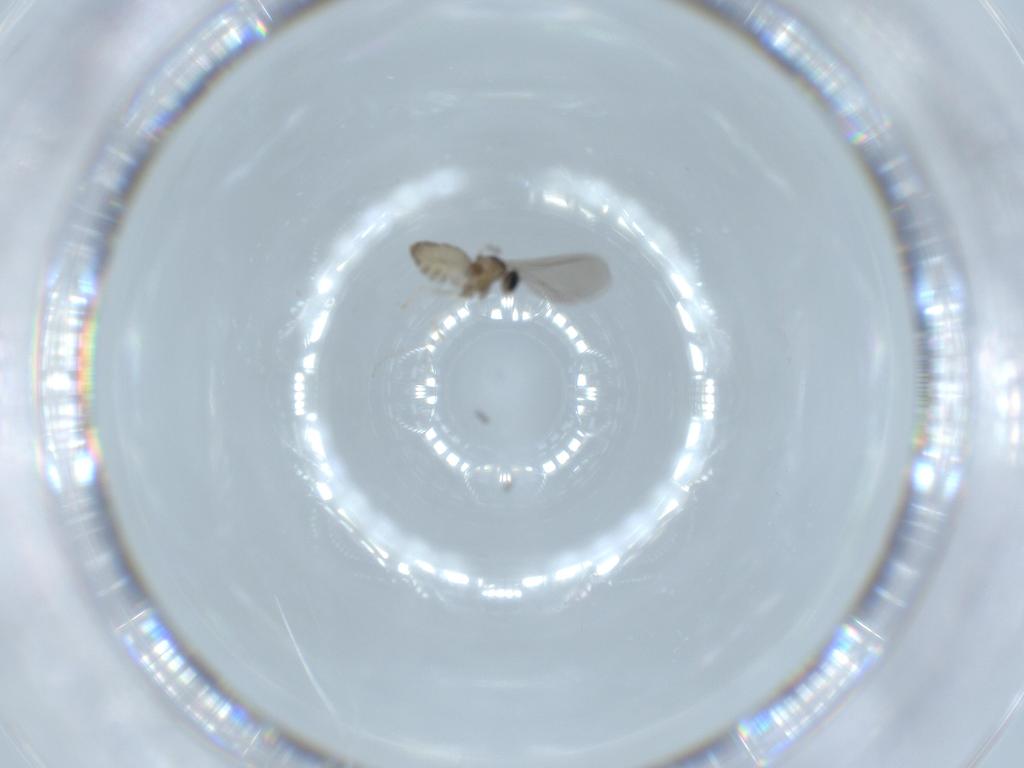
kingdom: Animalia
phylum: Arthropoda
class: Insecta
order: Diptera
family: Cecidomyiidae
